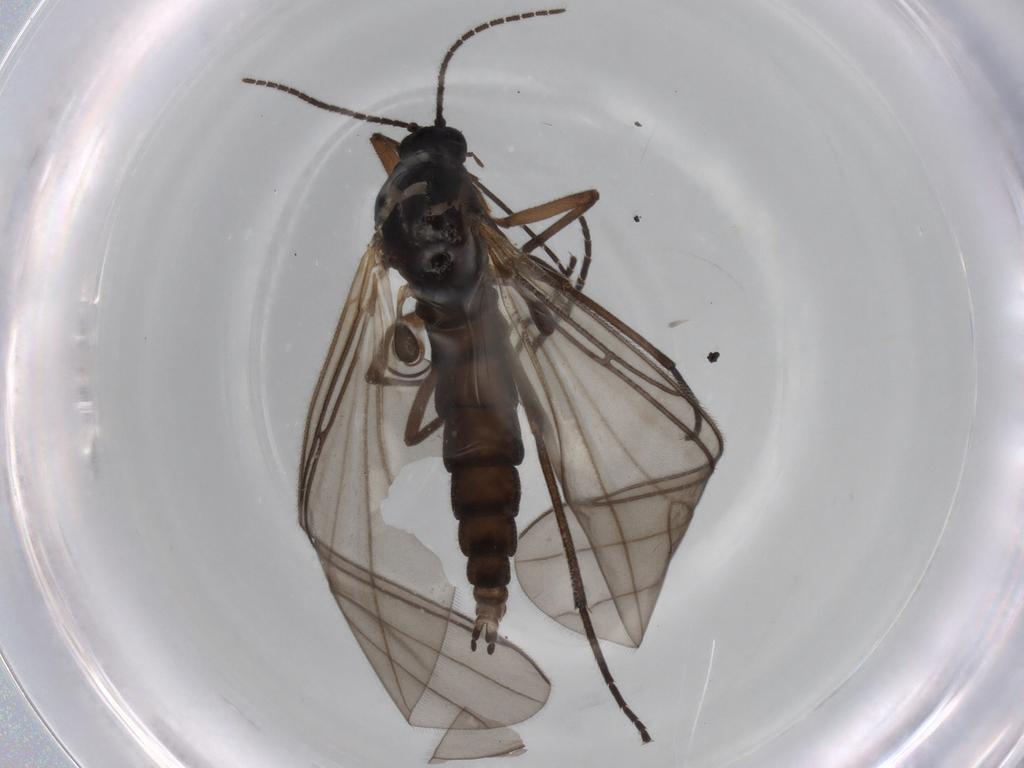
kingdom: Animalia
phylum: Arthropoda
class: Insecta
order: Diptera
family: Sciaridae
